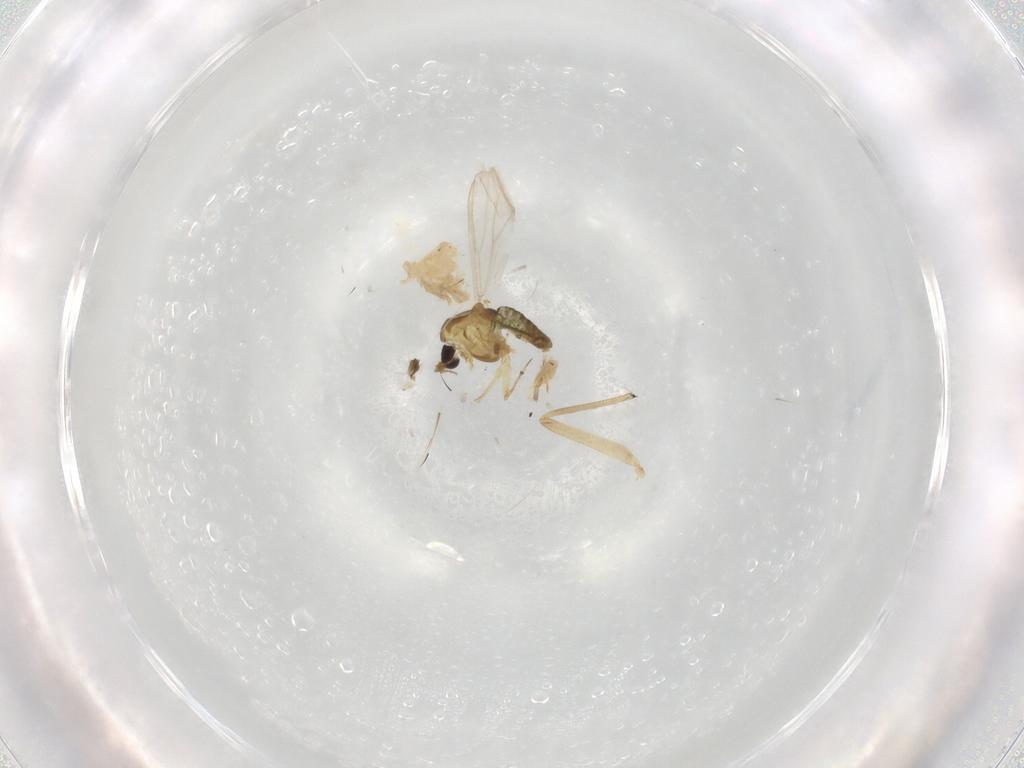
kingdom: Animalia
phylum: Arthropoda
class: Insecta
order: Diptera
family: Chironomidae
